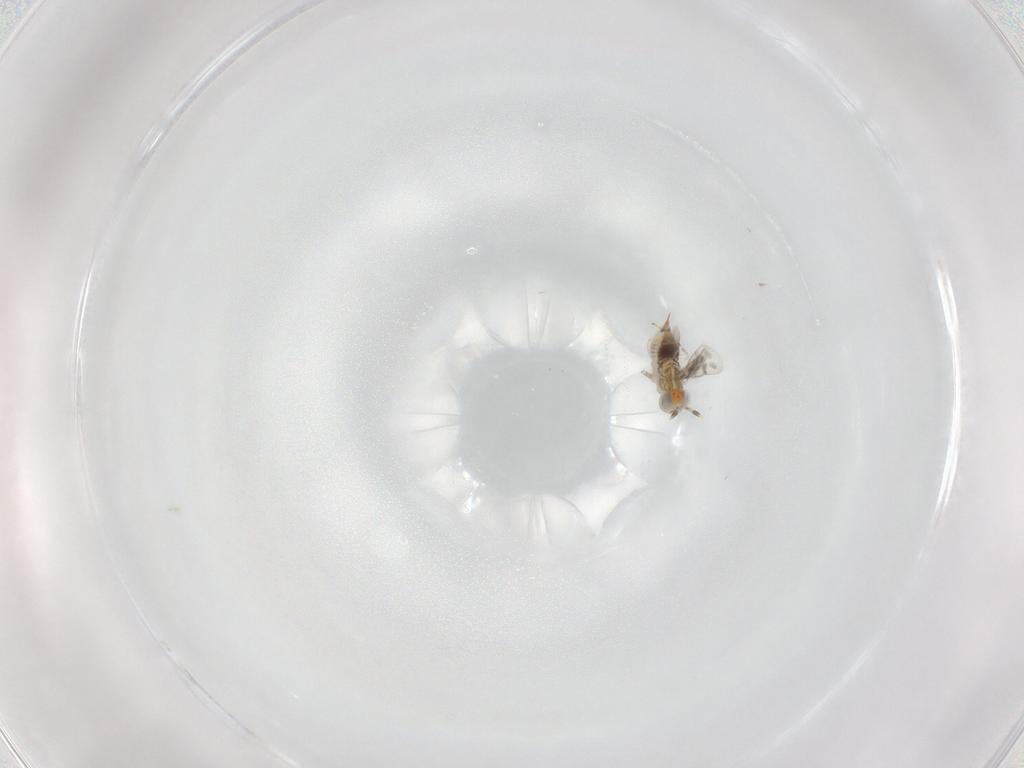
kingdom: Animalia
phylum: Arthropoda
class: Insecta
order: Hymenoptera
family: Aphelinidae
